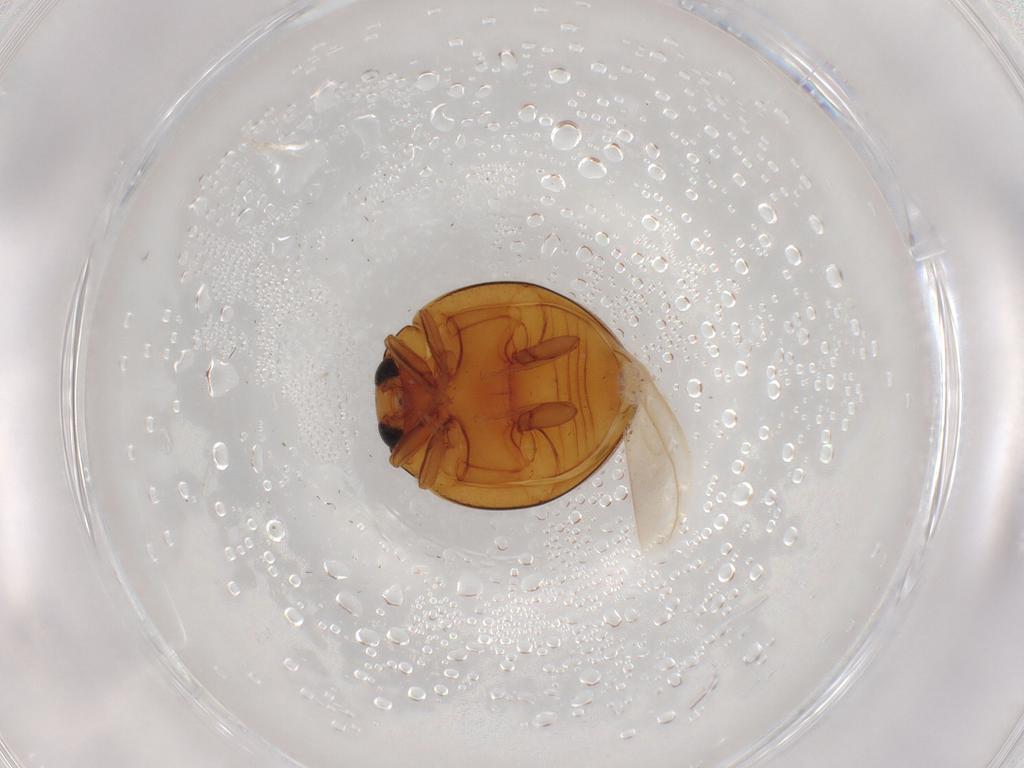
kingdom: Animalia
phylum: Arthropoda
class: Insecta
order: Coleoptera
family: Coccinellidae
